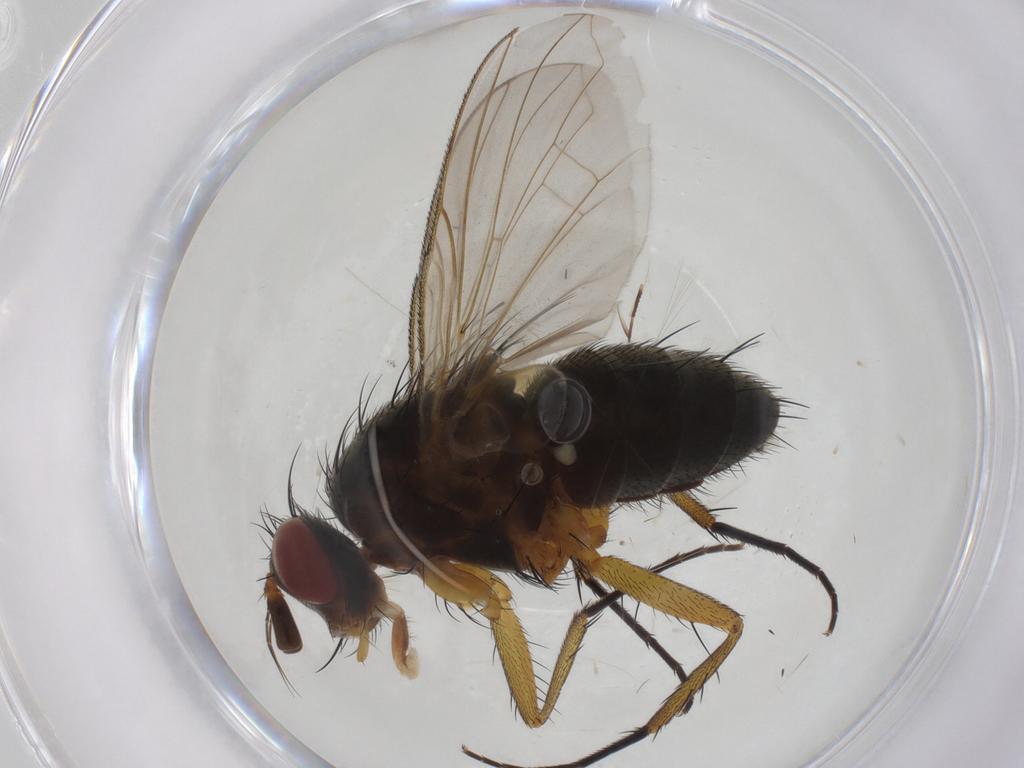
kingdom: Animalia
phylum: Arthropoda
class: Insecta
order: Diptera
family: Anthomyiidae
